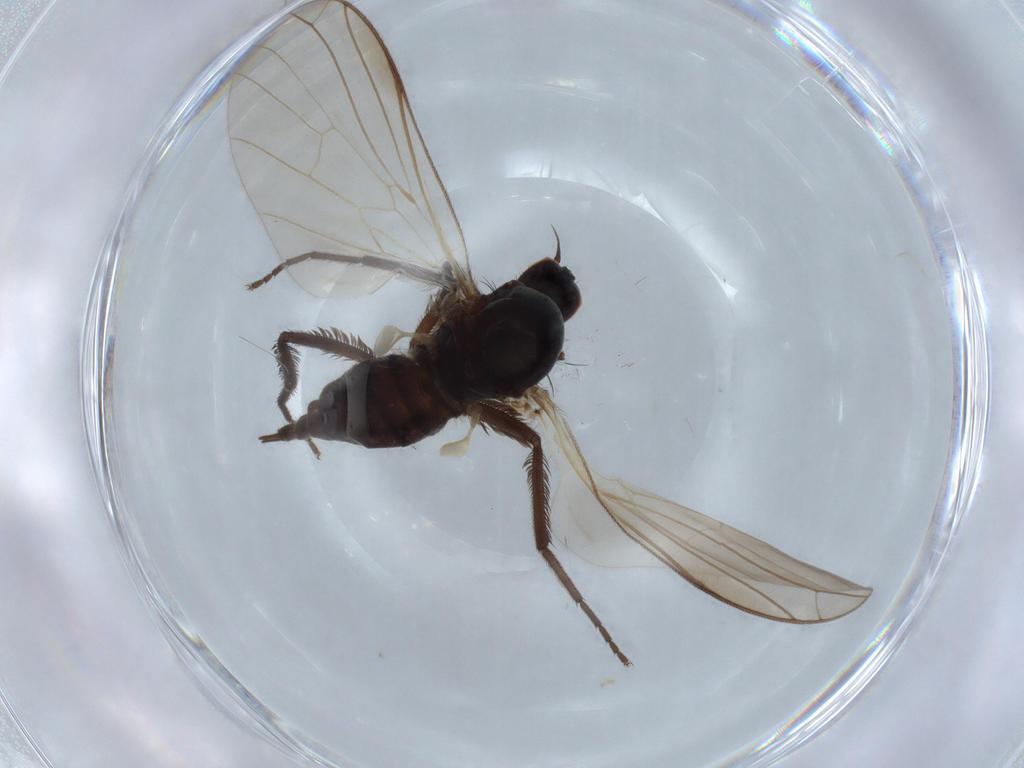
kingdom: Animalia
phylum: Arthropoda
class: Insecta
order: Diptera
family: Empididae
